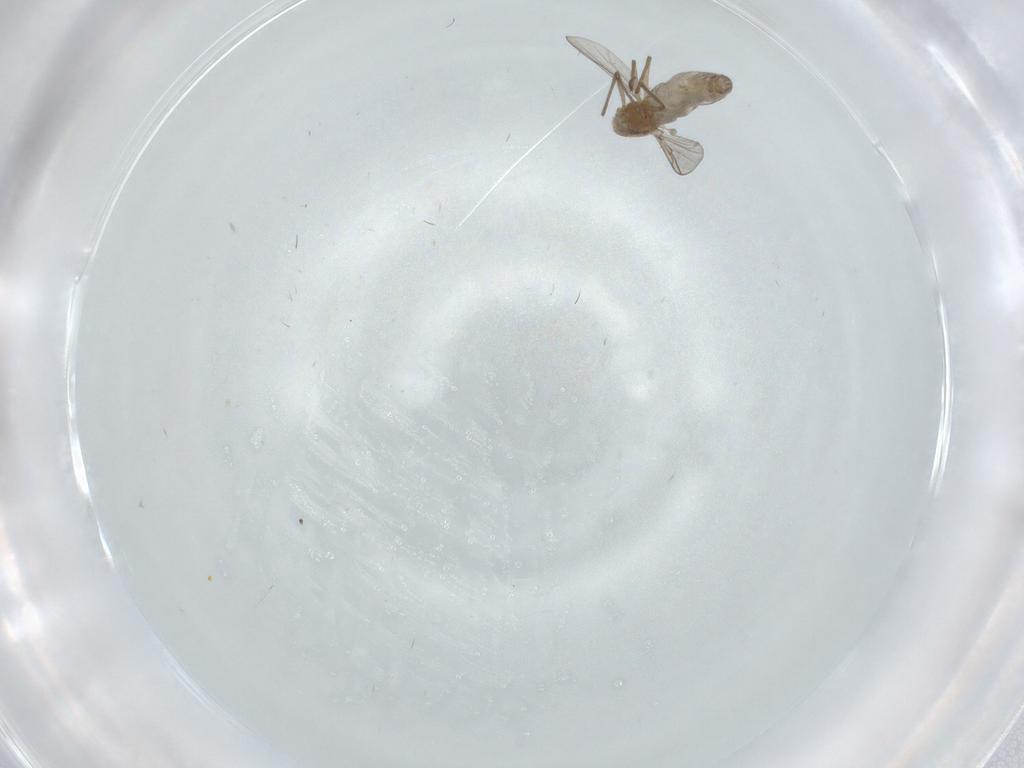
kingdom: Animalia
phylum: Arthropoda
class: Insecta
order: Diptera
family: Chironomidae
